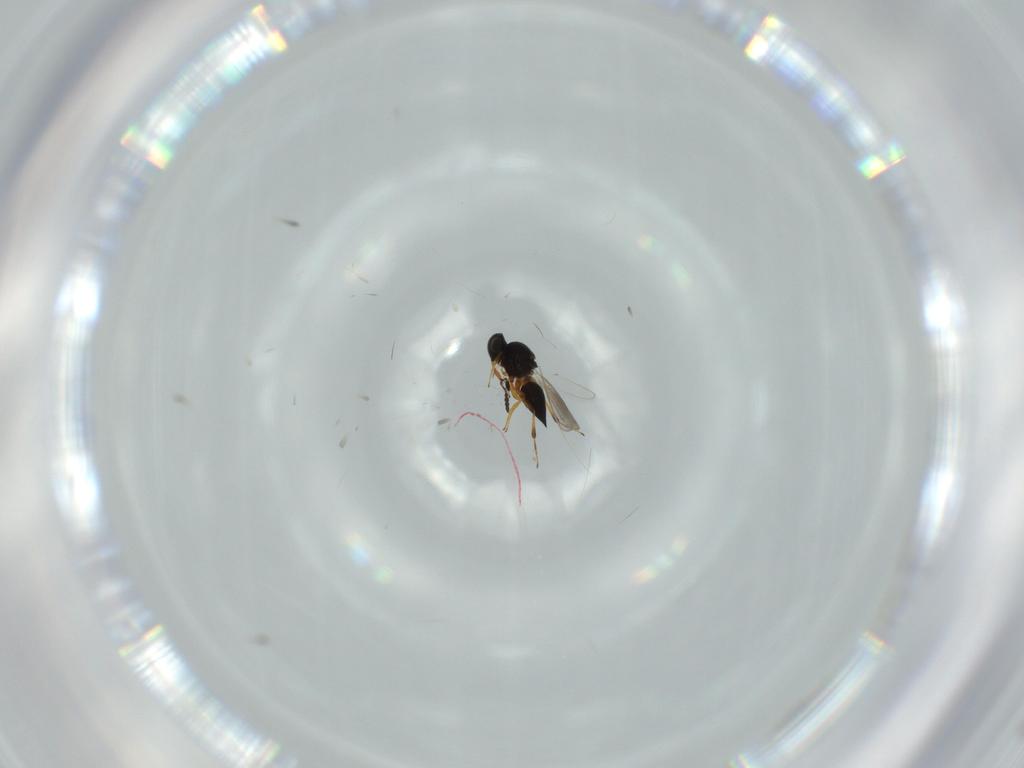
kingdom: Animalia
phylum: Arthropoda
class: Insecta
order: Hymenoptera
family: Platygastridae
